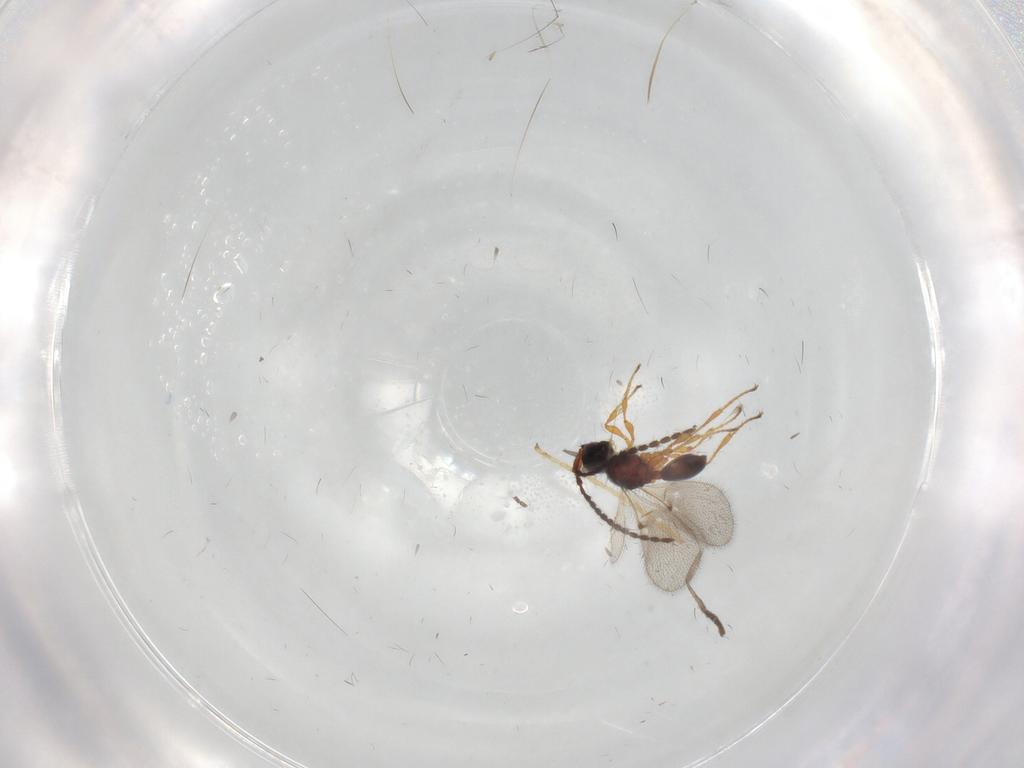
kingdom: Animalia
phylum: Arthropoda
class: Insecta
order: Hymenoptera
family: Diapriidae
